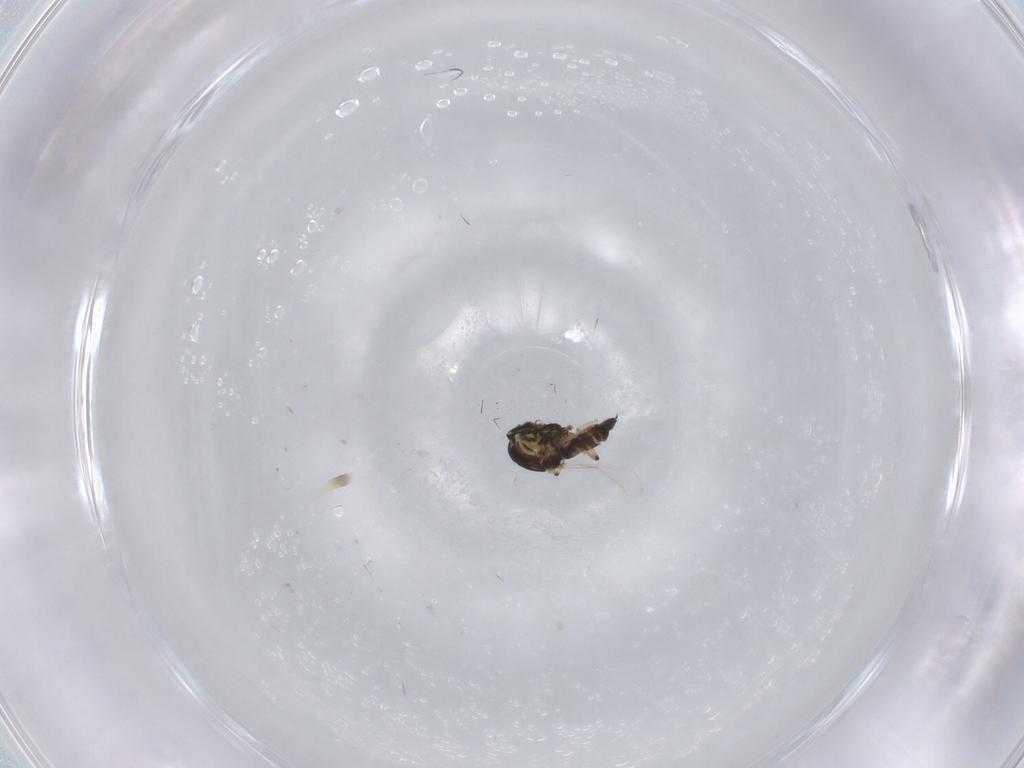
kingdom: Animalia
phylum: Arthropoda
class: Insecta
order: Diptera
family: Ceratopogonidae
